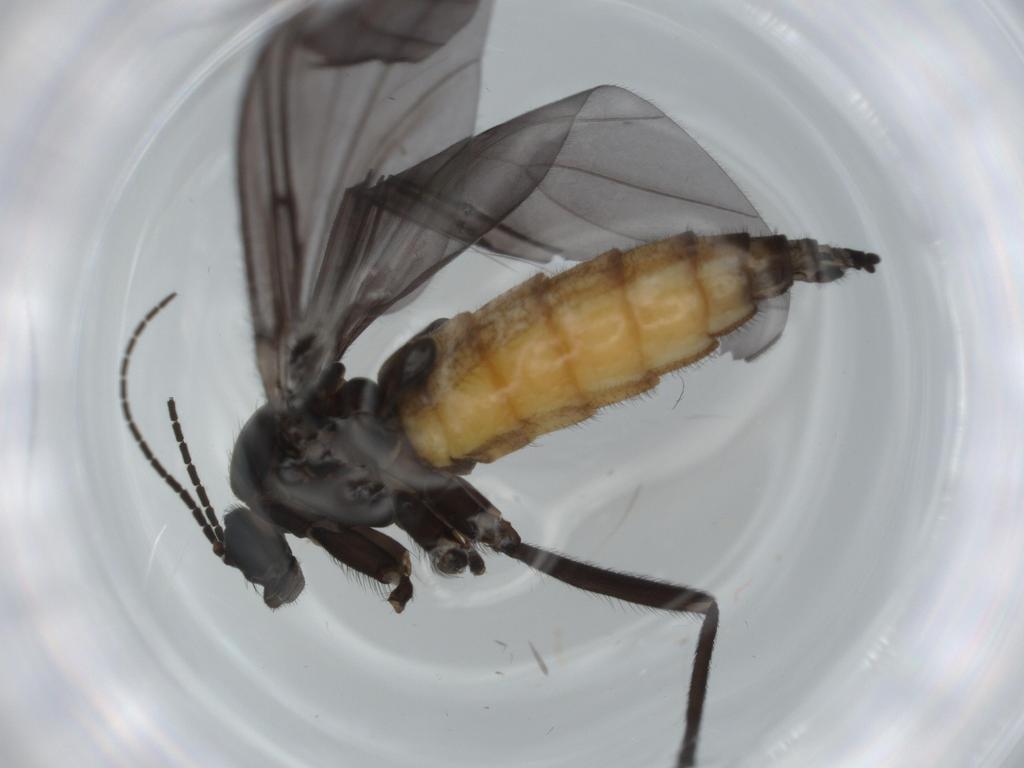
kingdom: Animalia
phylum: Arthropoda
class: Insecta
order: Diptera
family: Sciaridae
